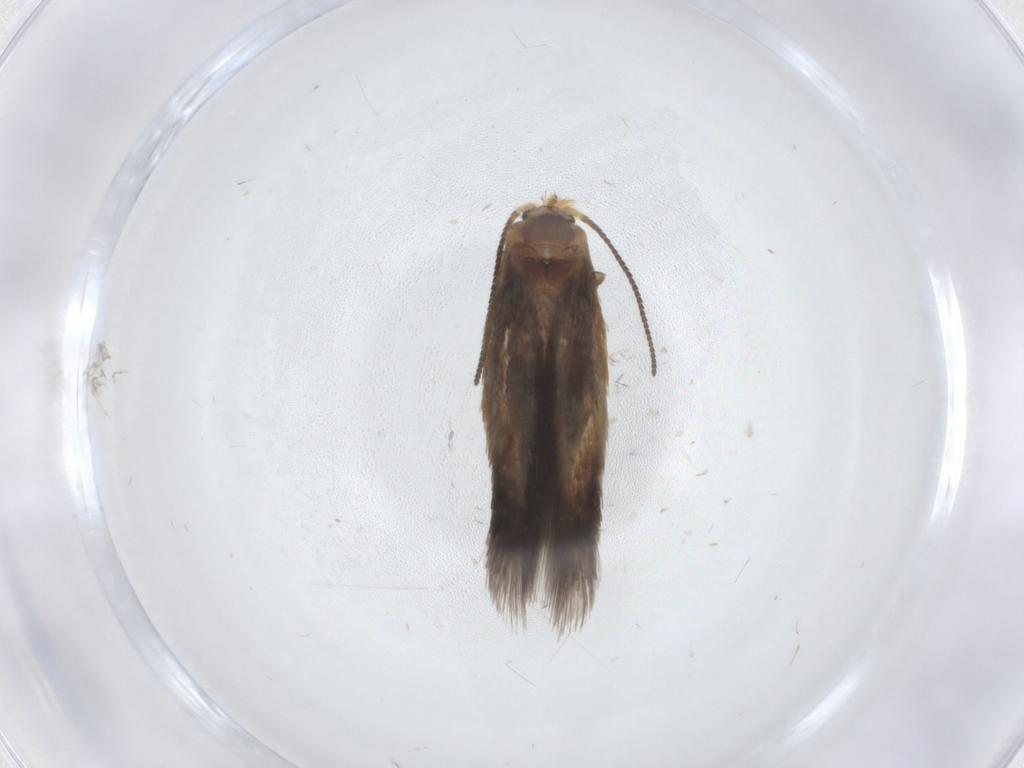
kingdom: Animalia
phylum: Arthropoda
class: Insecta
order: Lepidoptera
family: Nepticulidae
